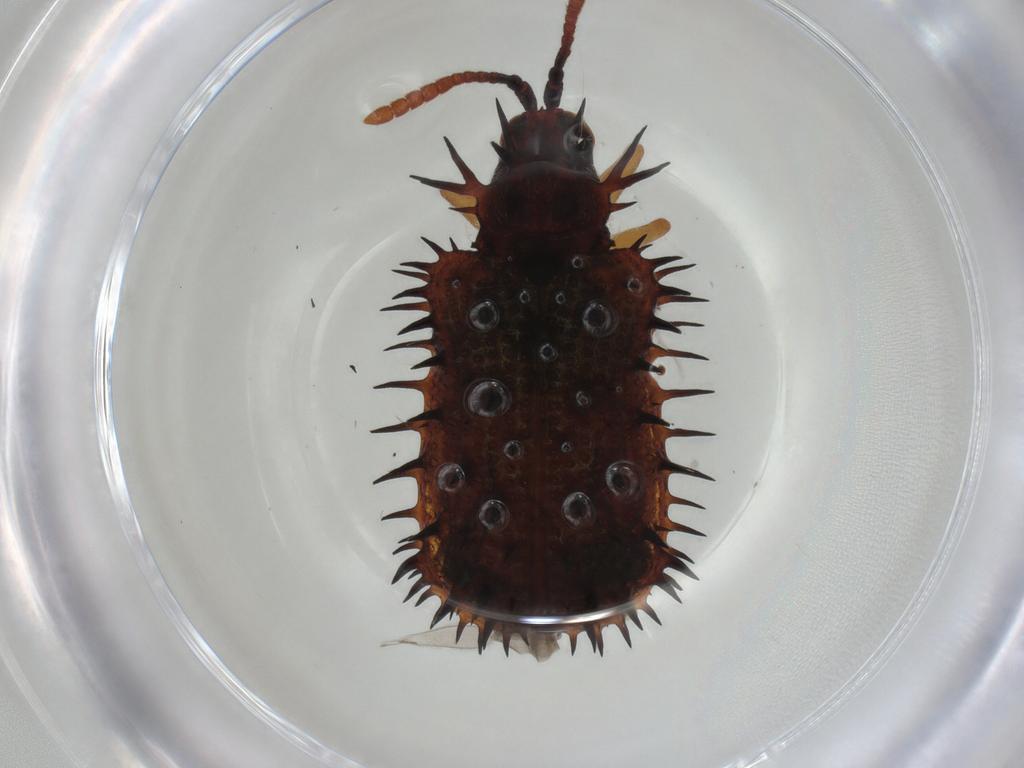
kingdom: Animalia
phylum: Arthropoda
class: Insecta
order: Coleoptera
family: Chrysomelidae
